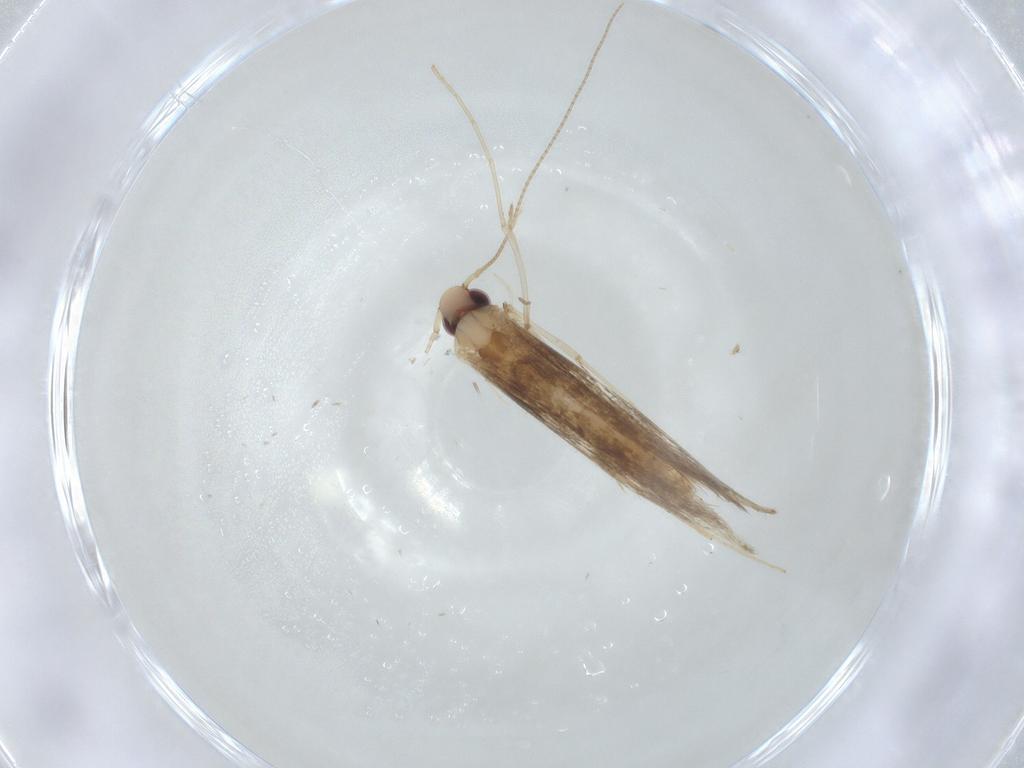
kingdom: Animalia
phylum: Arthropoda
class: Insecta
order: Lepidoptera
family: Gracillariidae
